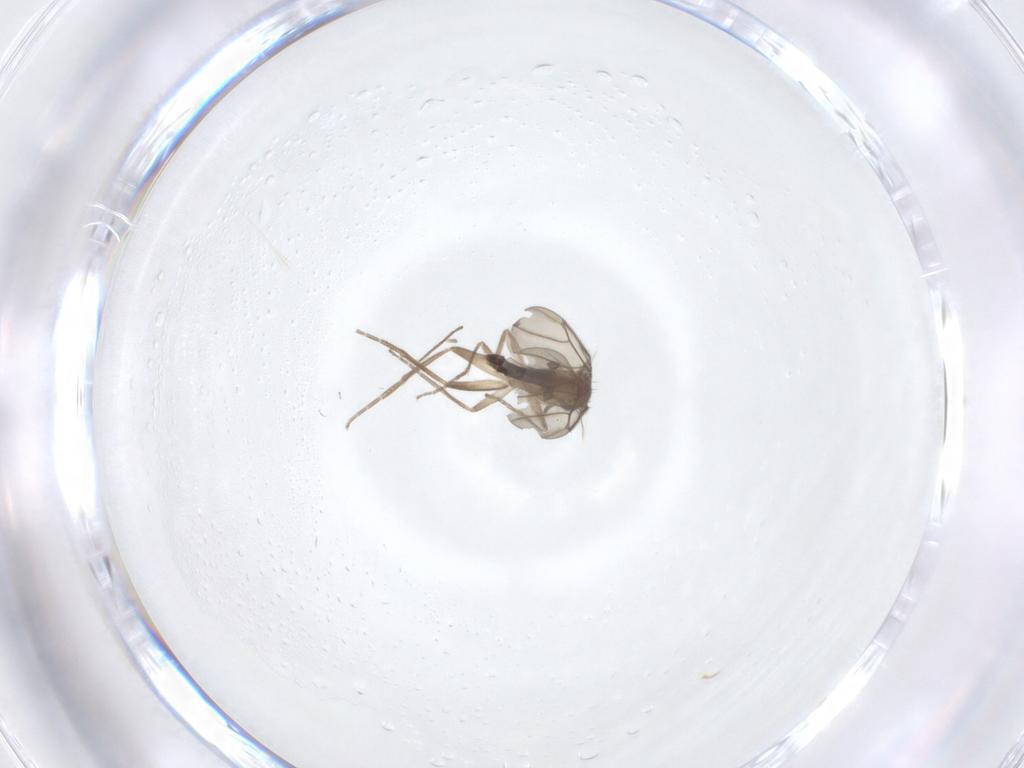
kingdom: Animalia
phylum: Arthropoda
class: Insecta
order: Diptera
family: Chironomidae
